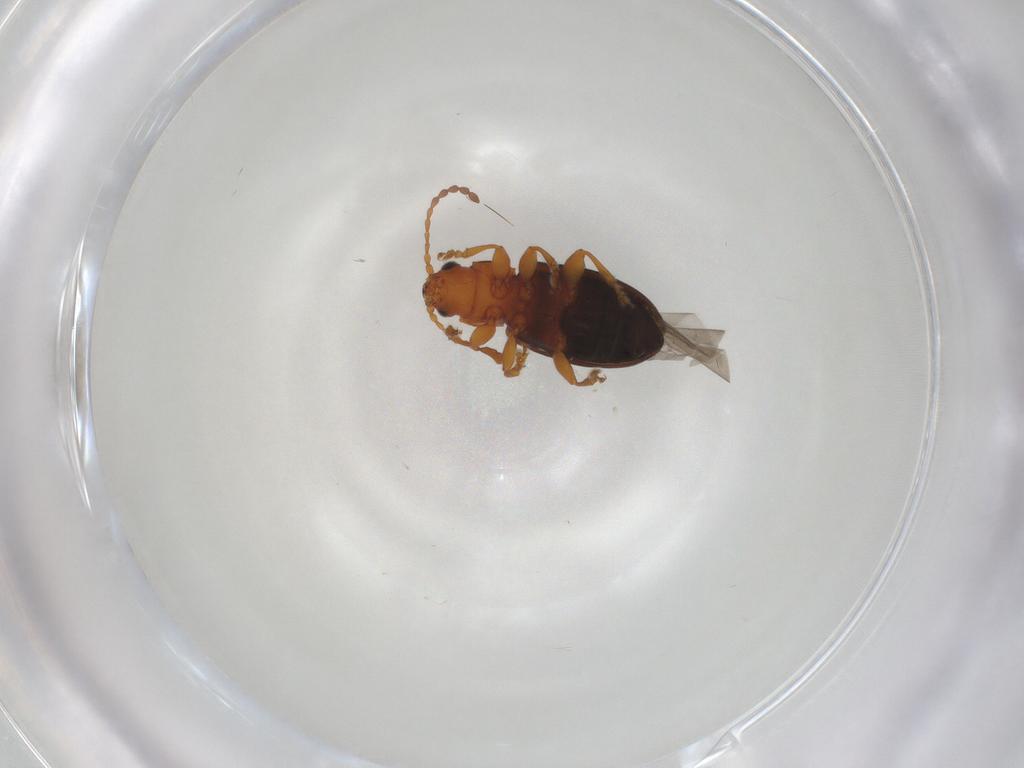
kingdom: Animalia
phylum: Arthropoda
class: Insecta
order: Coleoptera
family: Chrysomelidae
